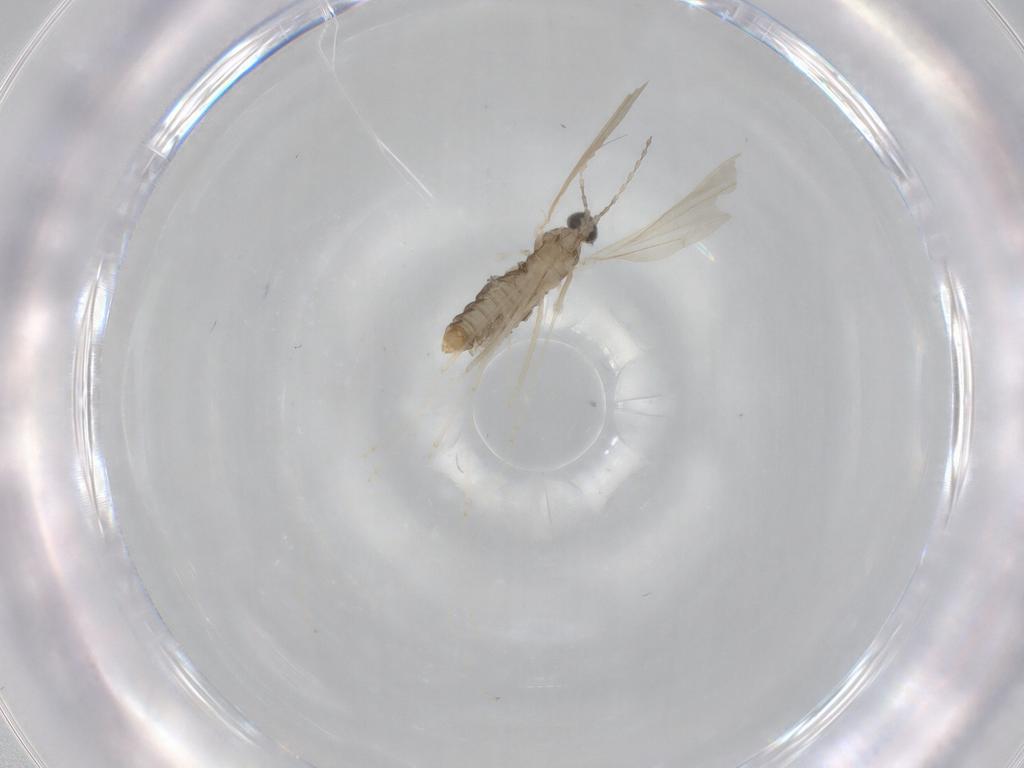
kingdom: Animalia
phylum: Arthropoda
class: Insecta
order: Diptera
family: Cecidomyiidae
